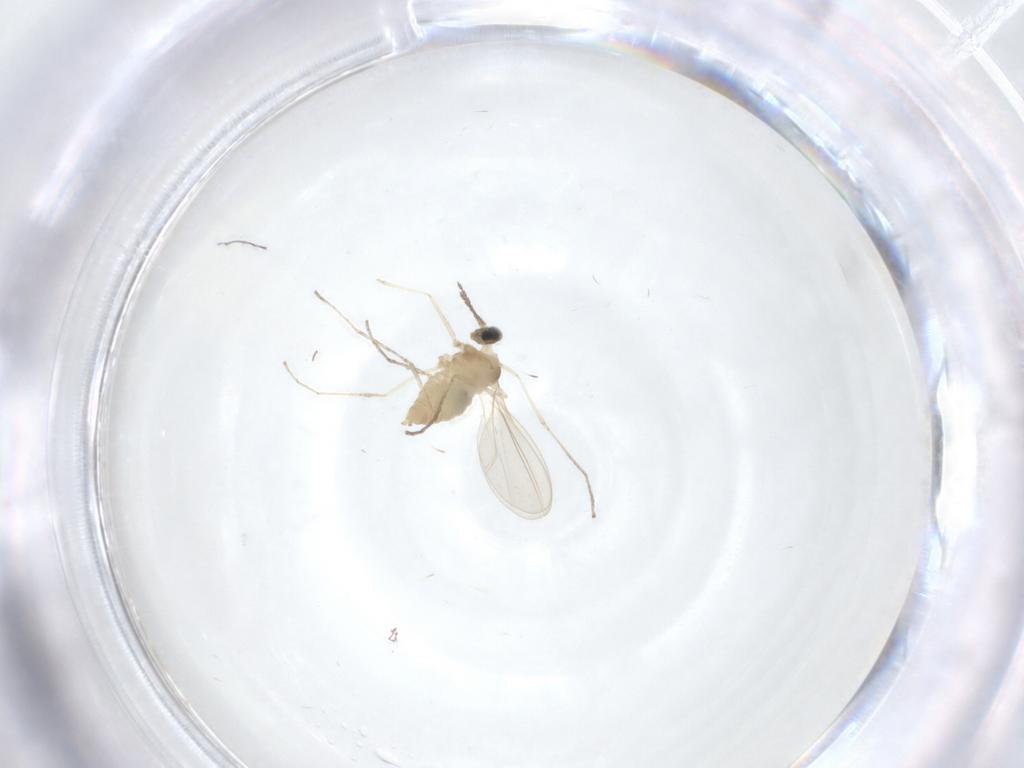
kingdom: Animalia
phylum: Arthropoda
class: Insecta
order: Diptera
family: Cecidomyiidae
